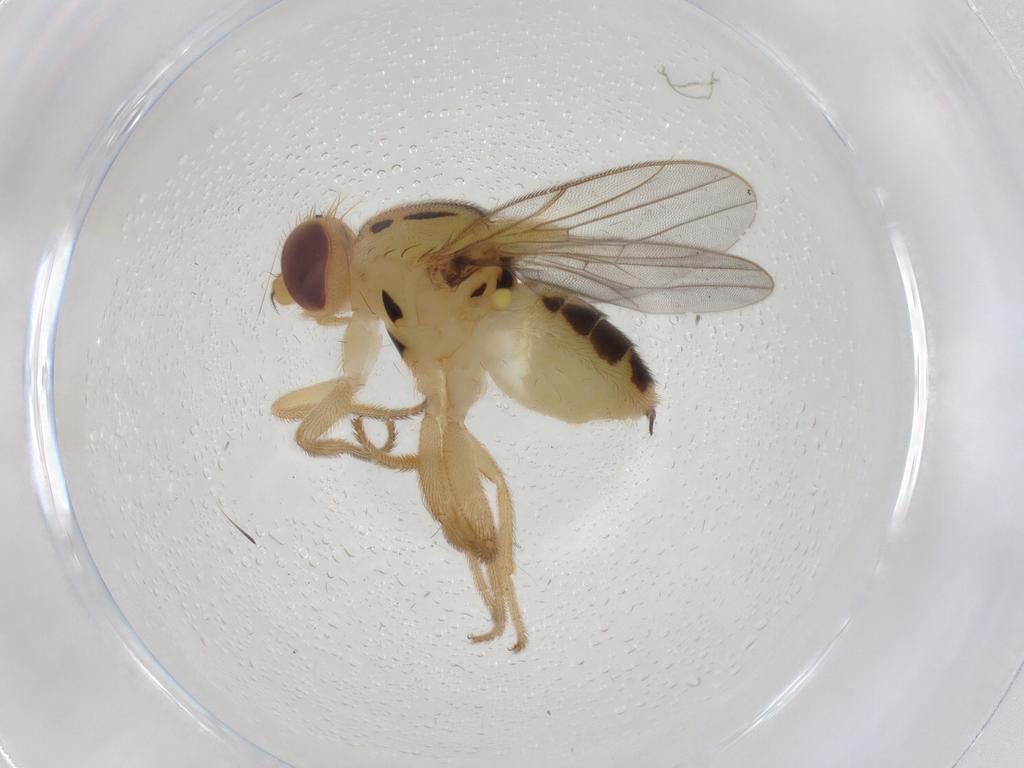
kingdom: Animalia
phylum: Arthropoda
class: Insecta
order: Diptera
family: Chloropidae
